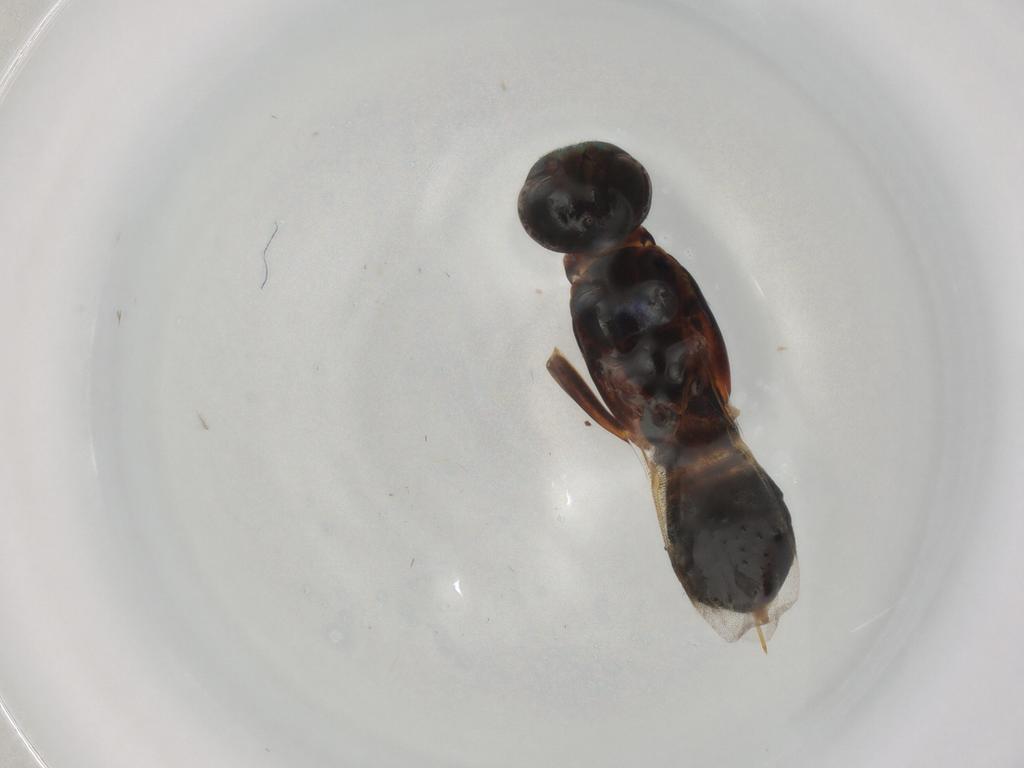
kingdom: Animalia
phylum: Arthropoda
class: Insecta
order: Hymenoptera
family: Eupelmidae
